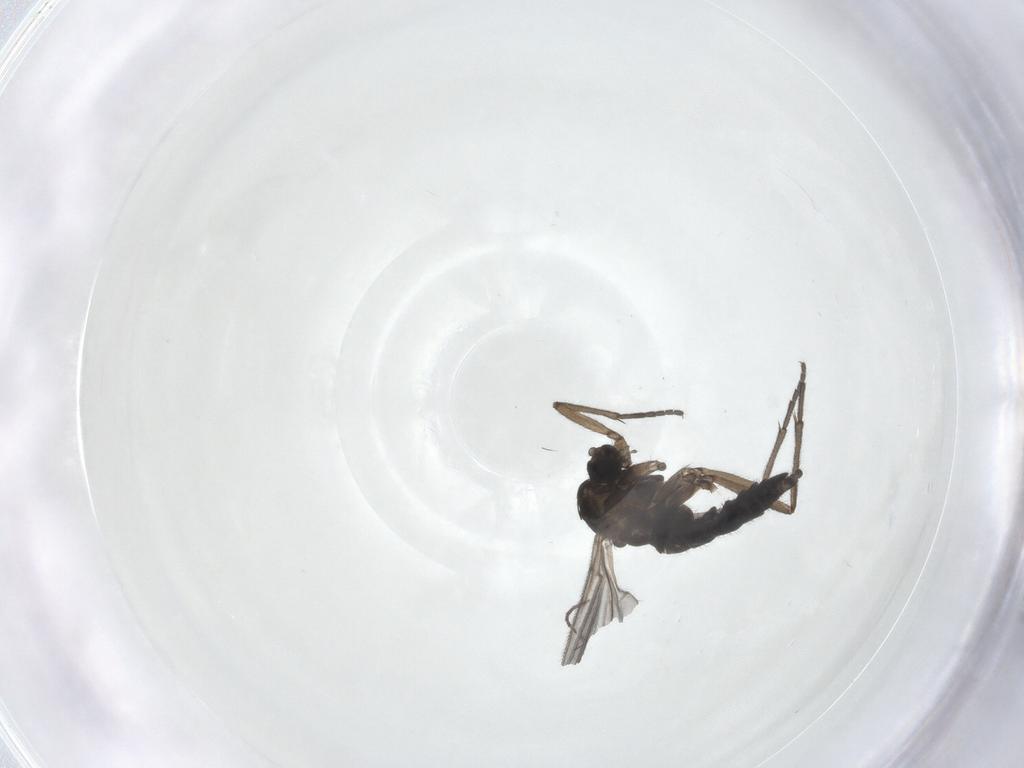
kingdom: Animalia
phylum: Arthropoda
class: Insecta
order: Diptera
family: Sciaridae
